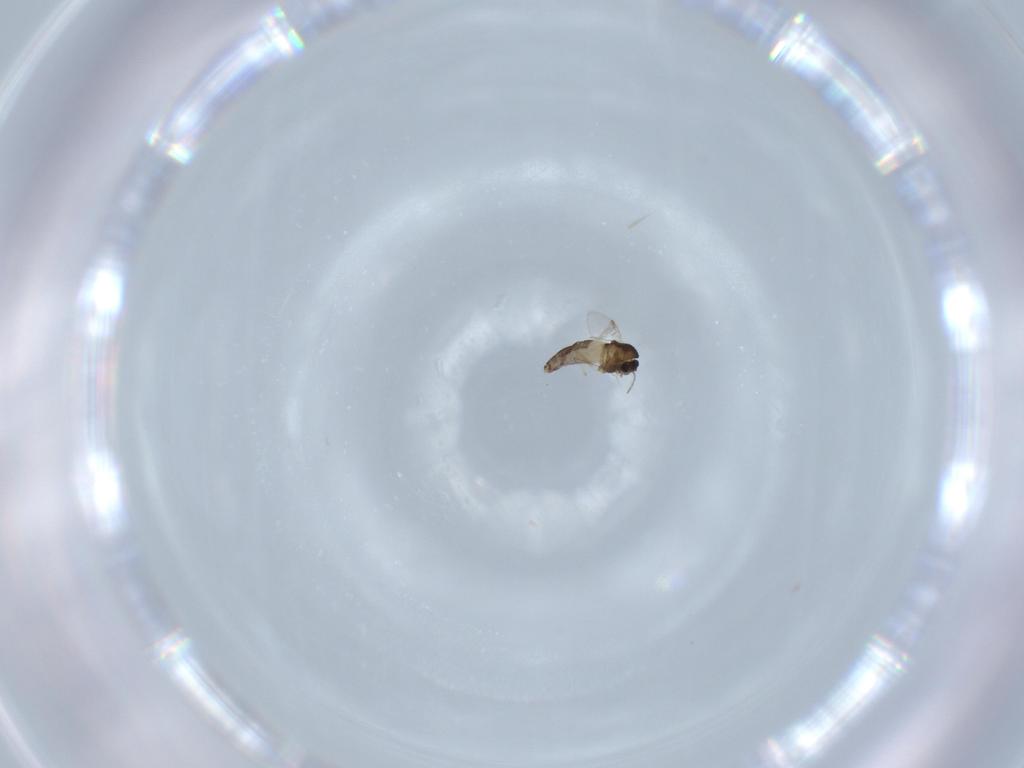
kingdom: Animalia
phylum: Arthropoda
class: Insecta
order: Diptera
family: Chironomidae
